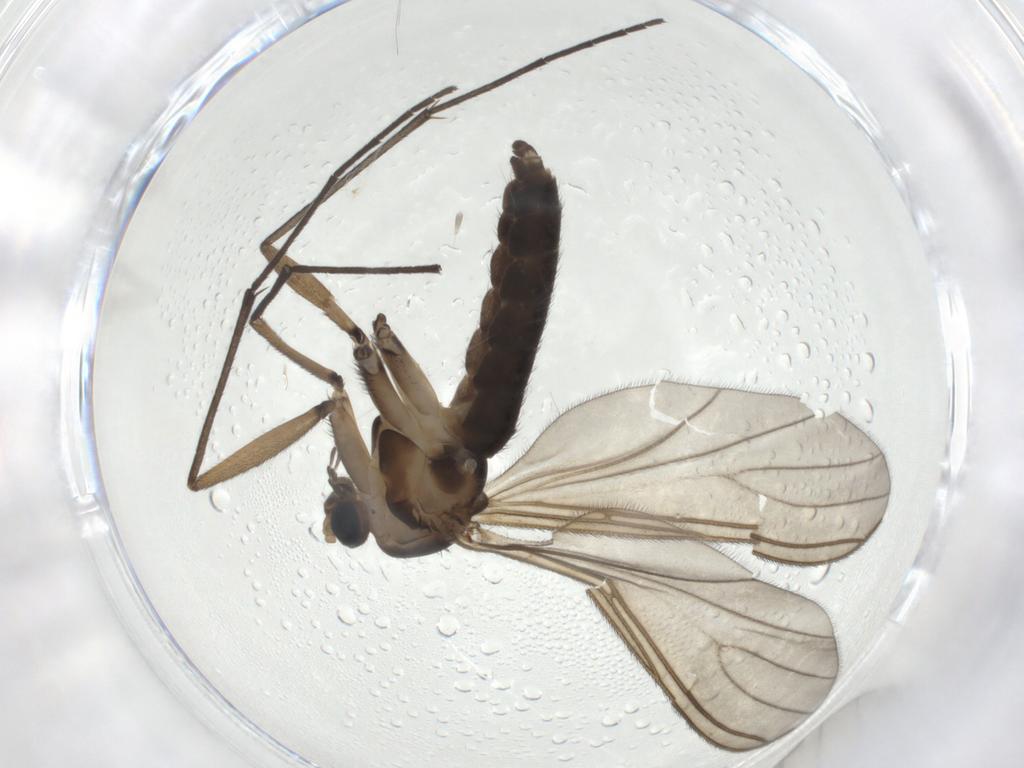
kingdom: Animalia
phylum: Arthropoda
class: Insecta
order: Diptera
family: Sciaridae
